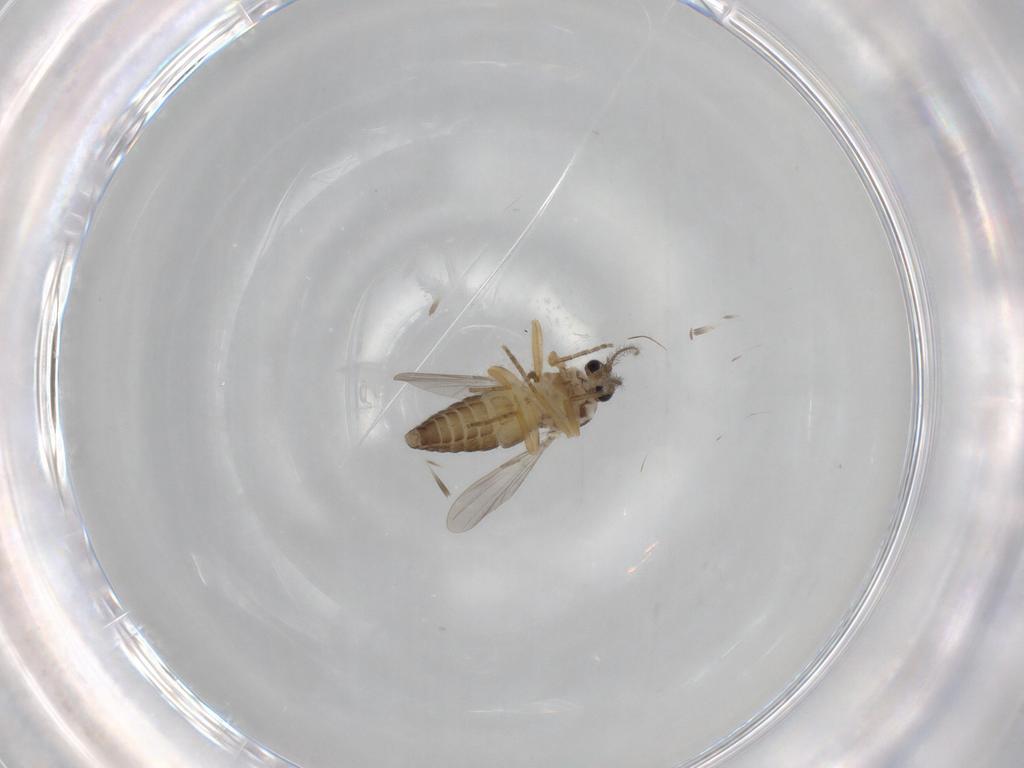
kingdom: Animalia
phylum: Arthropoda
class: Insecta
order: Diptera
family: Ceratopogonidae
